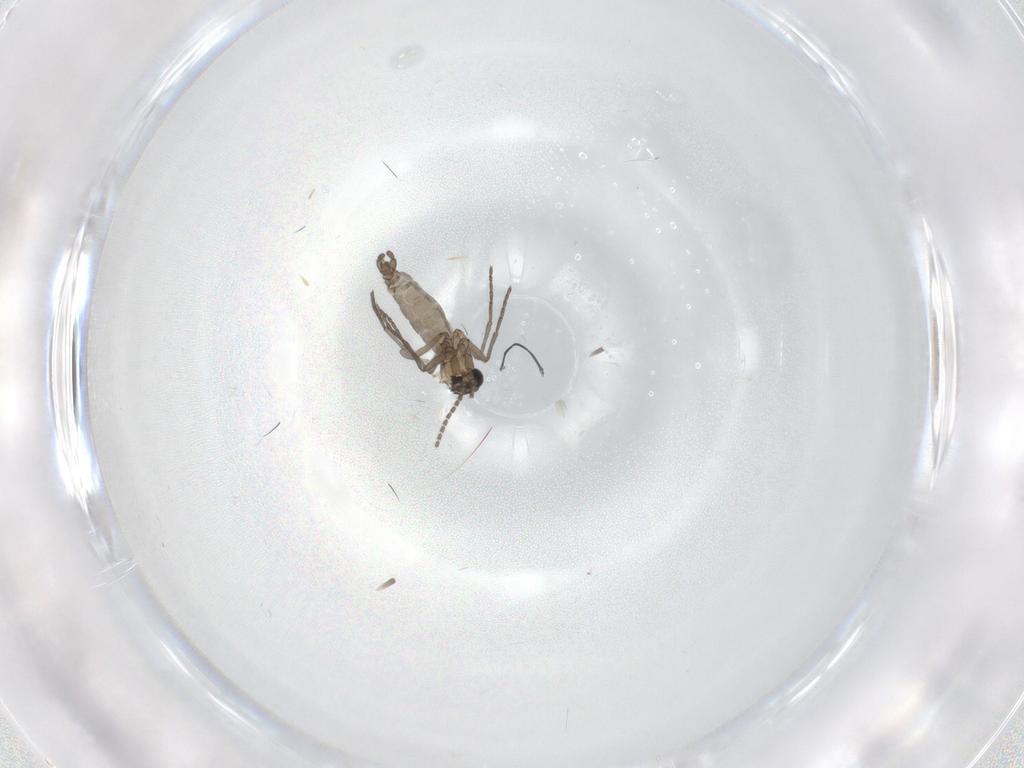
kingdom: Animalia
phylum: Arthropoda
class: Insecta
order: Diptera
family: Sciaridae
